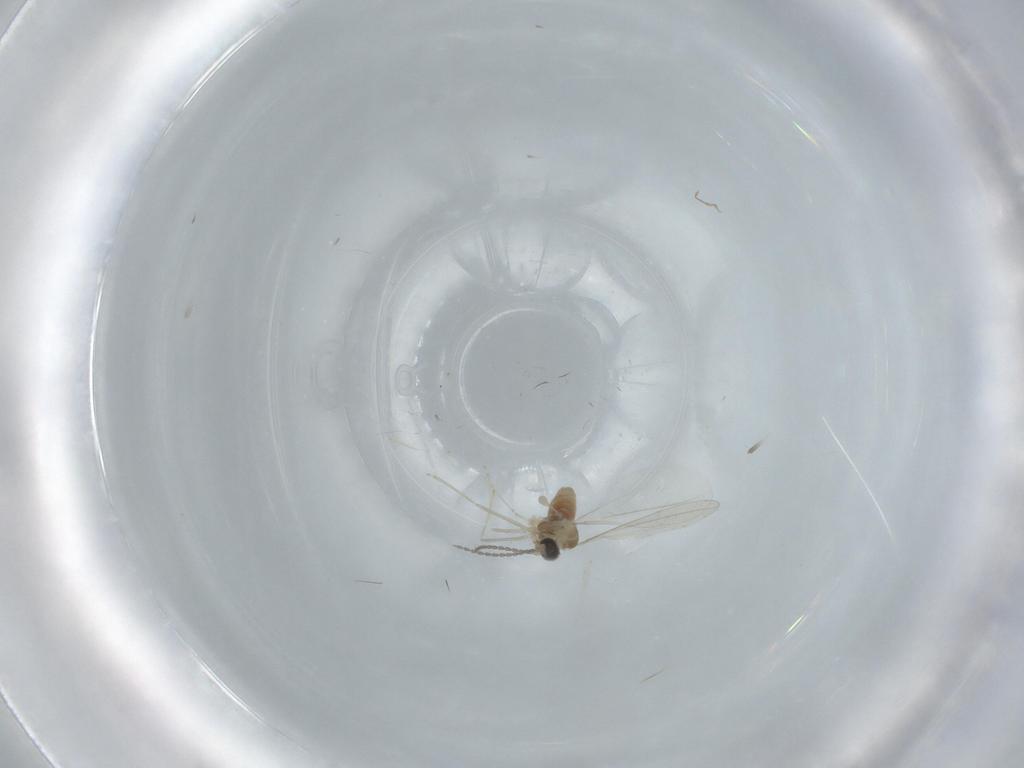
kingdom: Animalia
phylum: Arthropoda
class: Insecta
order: Diptera
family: Cecidomyiidae
